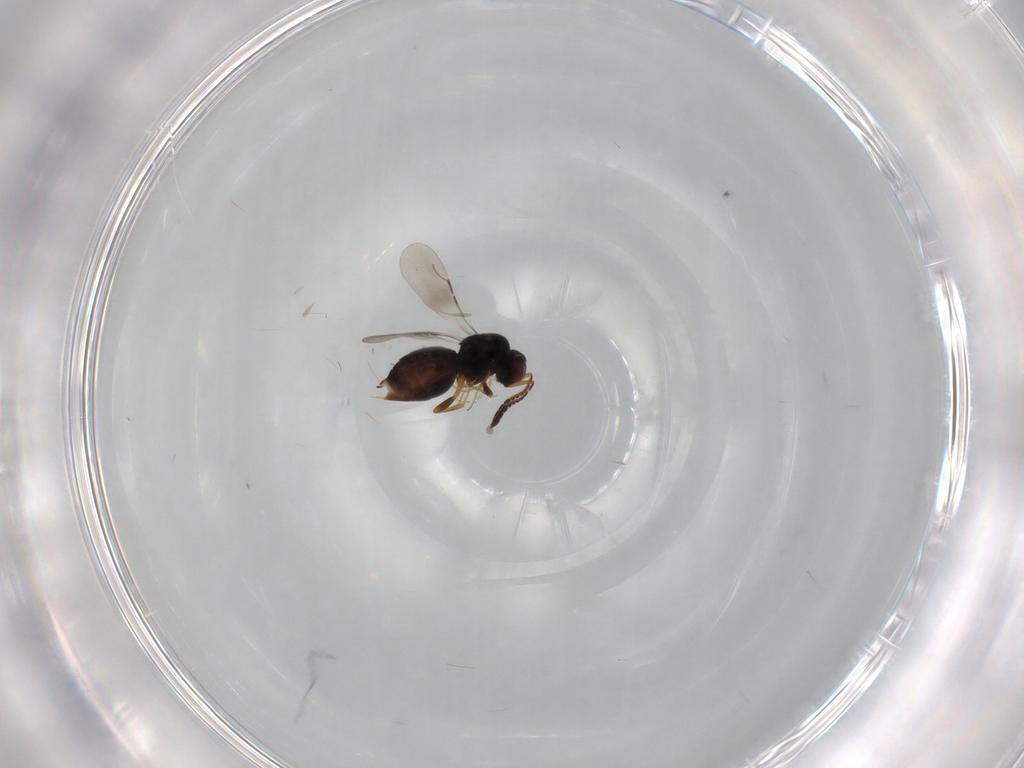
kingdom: Animalia
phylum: Arthropoda
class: Insecta
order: Hymenoptera
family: Ceraphronidae
